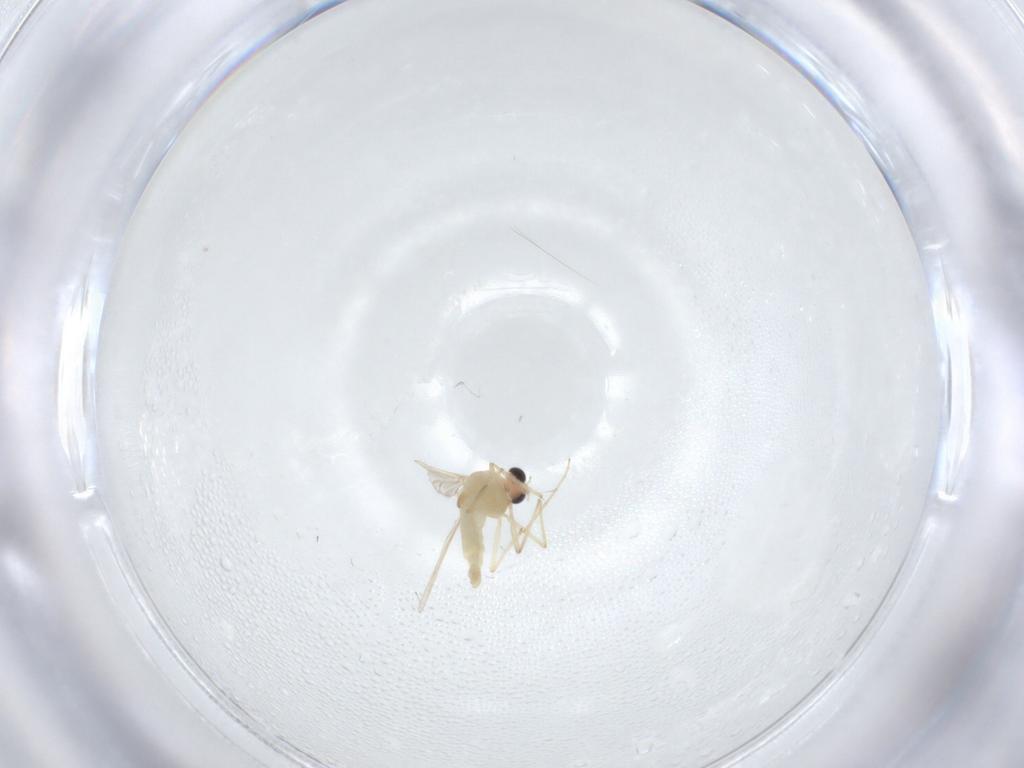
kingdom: Animalia
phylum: Arthropoda
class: Insecta
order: Diptera
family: Chironomidae
